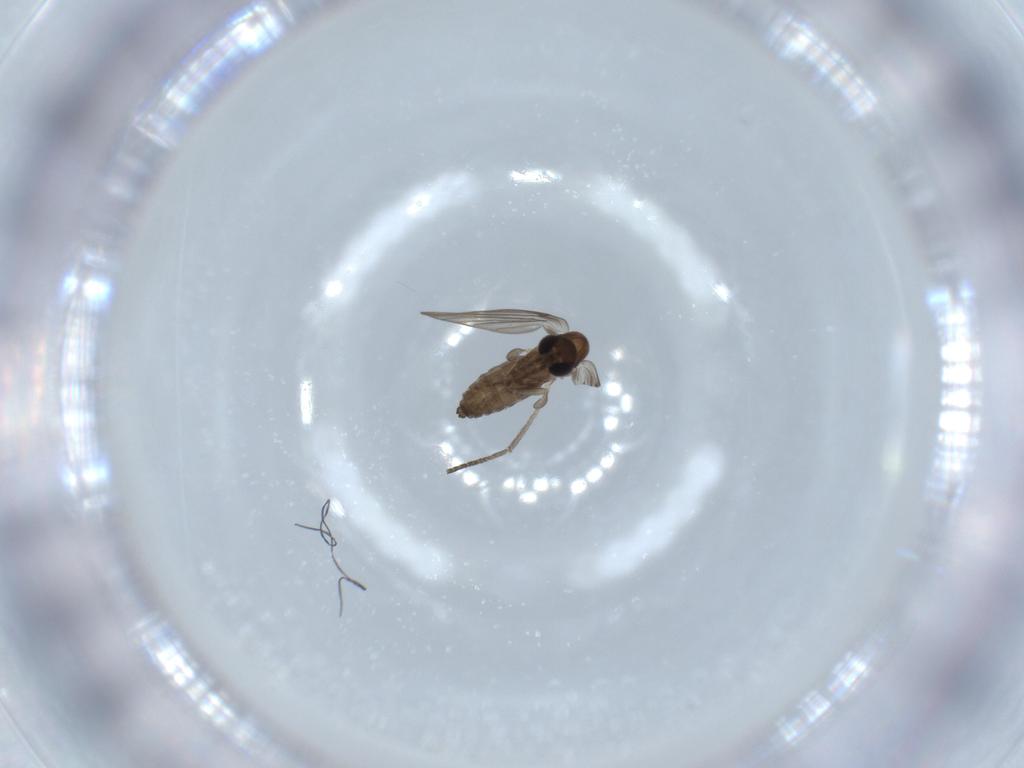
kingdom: Animalia
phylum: Arthropoda
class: Insecta
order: Diptera
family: Psychodidae
